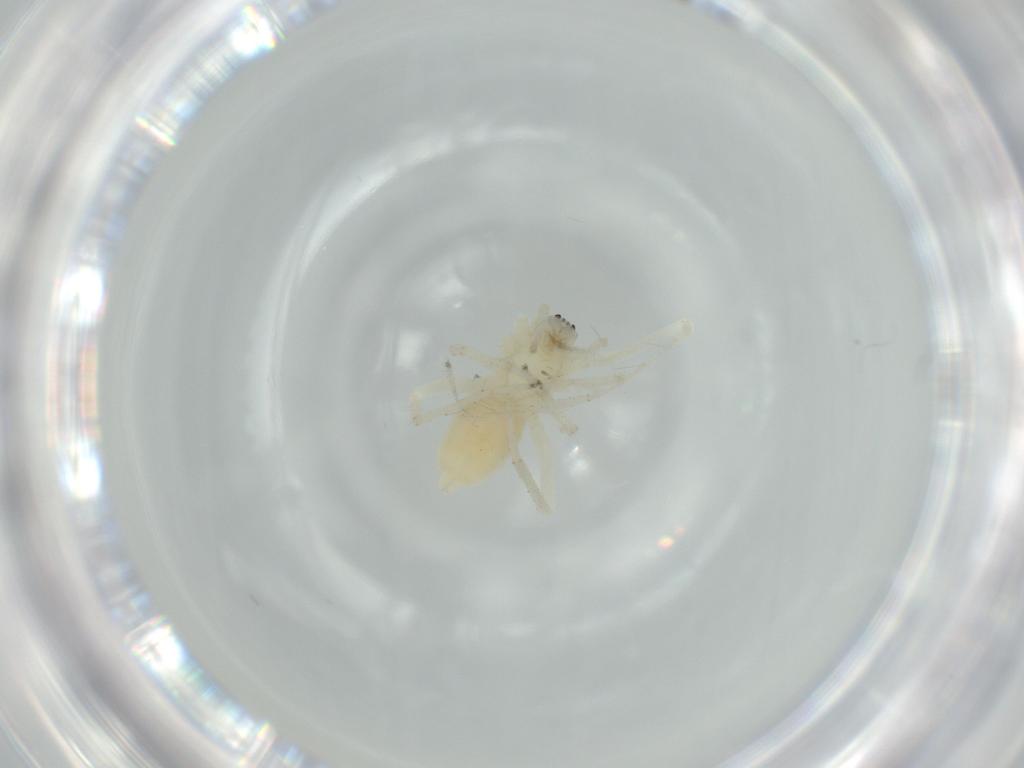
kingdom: Animalia
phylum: Arthropoda
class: Arachnida
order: Araneae
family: Anyphaenidae
